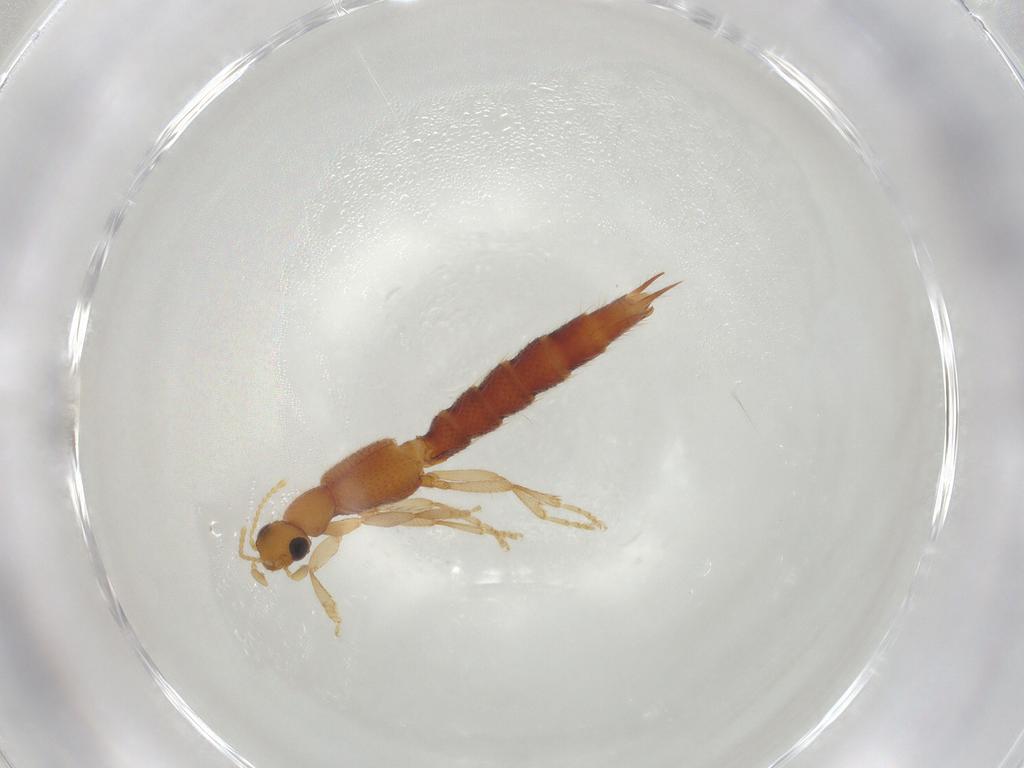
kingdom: Animalia
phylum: Arthropoda
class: Insecta
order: Coleoptera
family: Staphylinidae
